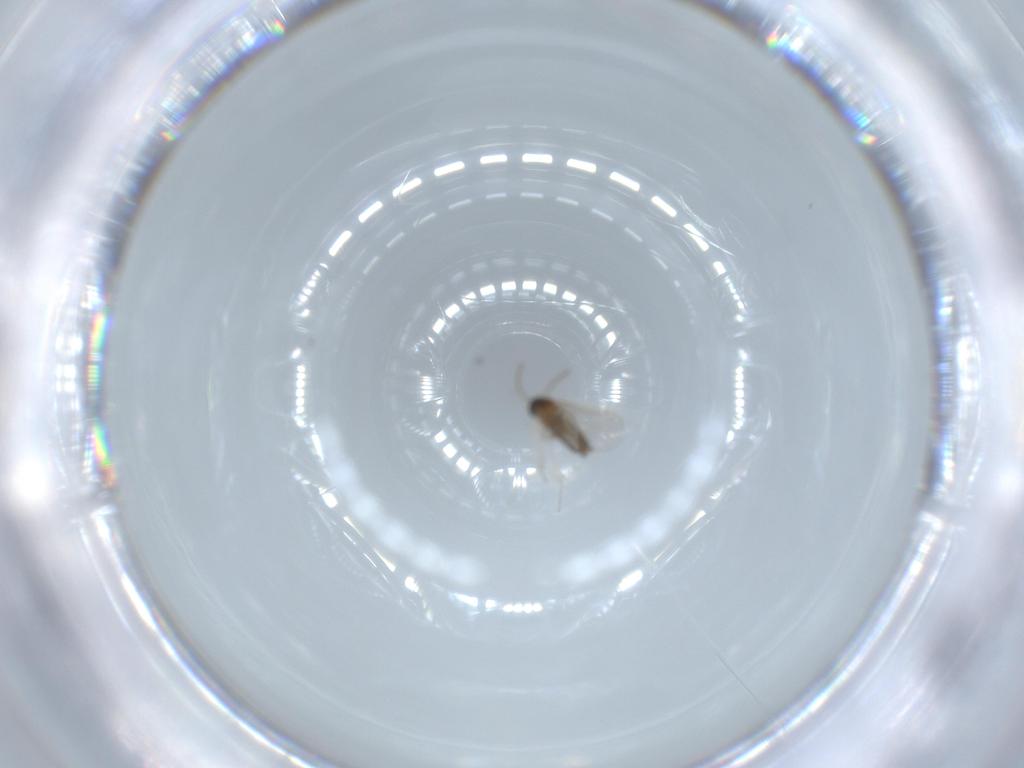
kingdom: Animalia
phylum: Arthropoda
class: Insecta
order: Diptera
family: Cecidomyiidae
